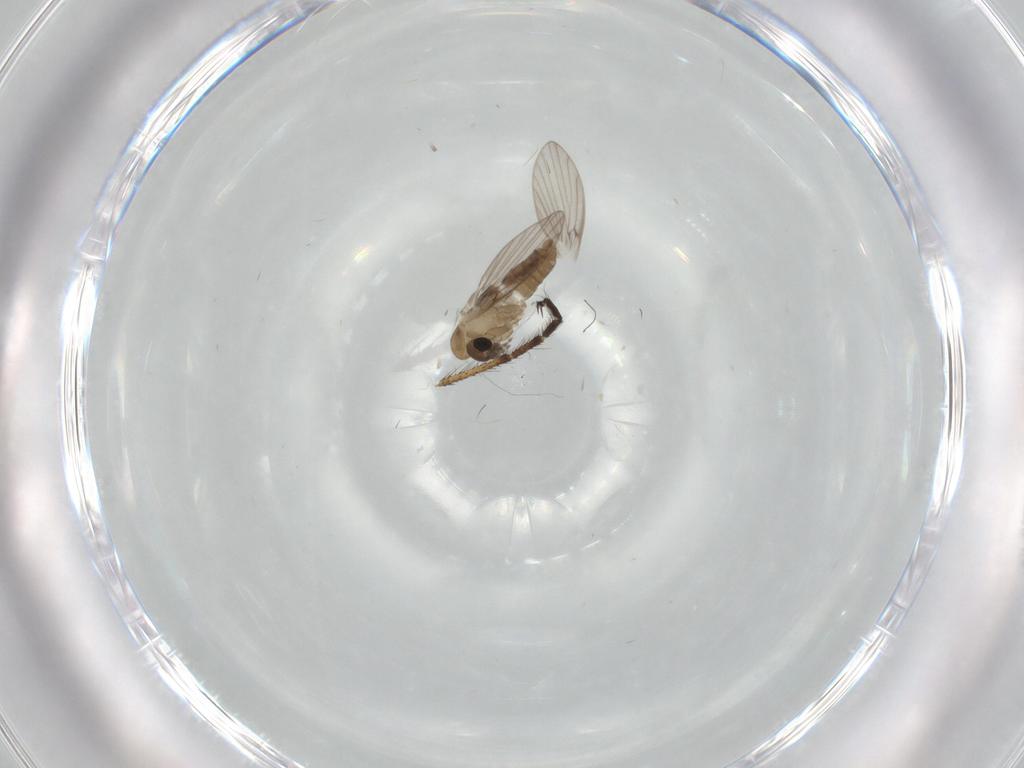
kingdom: Animalia
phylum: Arthropoda
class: Insecta
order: Diptera
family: Psychodidae
